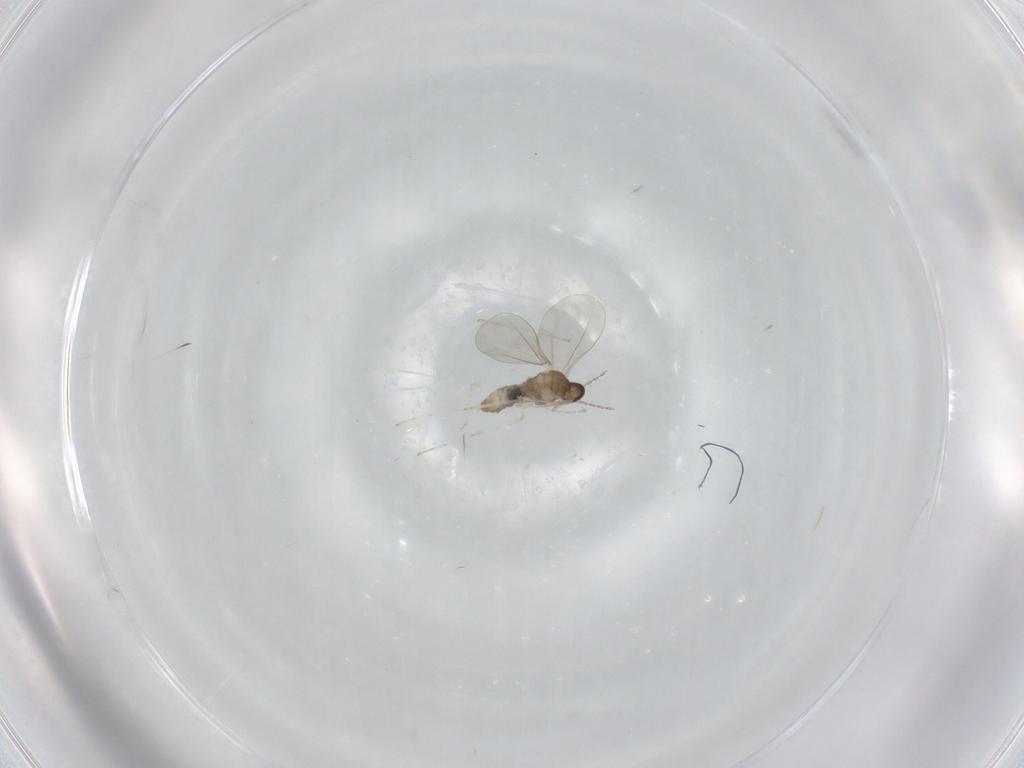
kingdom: Animalia
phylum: Arthropoda
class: Insecta
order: Diptera
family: Cecidomyiidae
